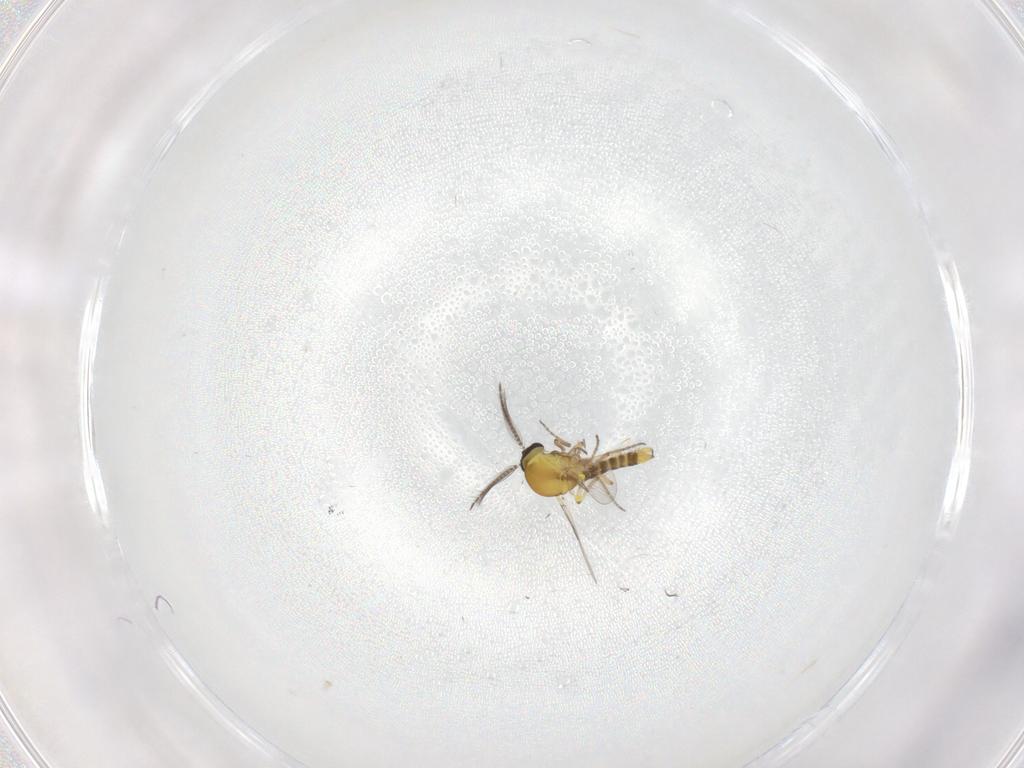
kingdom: Animalia
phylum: Arthropoda
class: Insecta
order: Diptera
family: Ceratopogonidae
